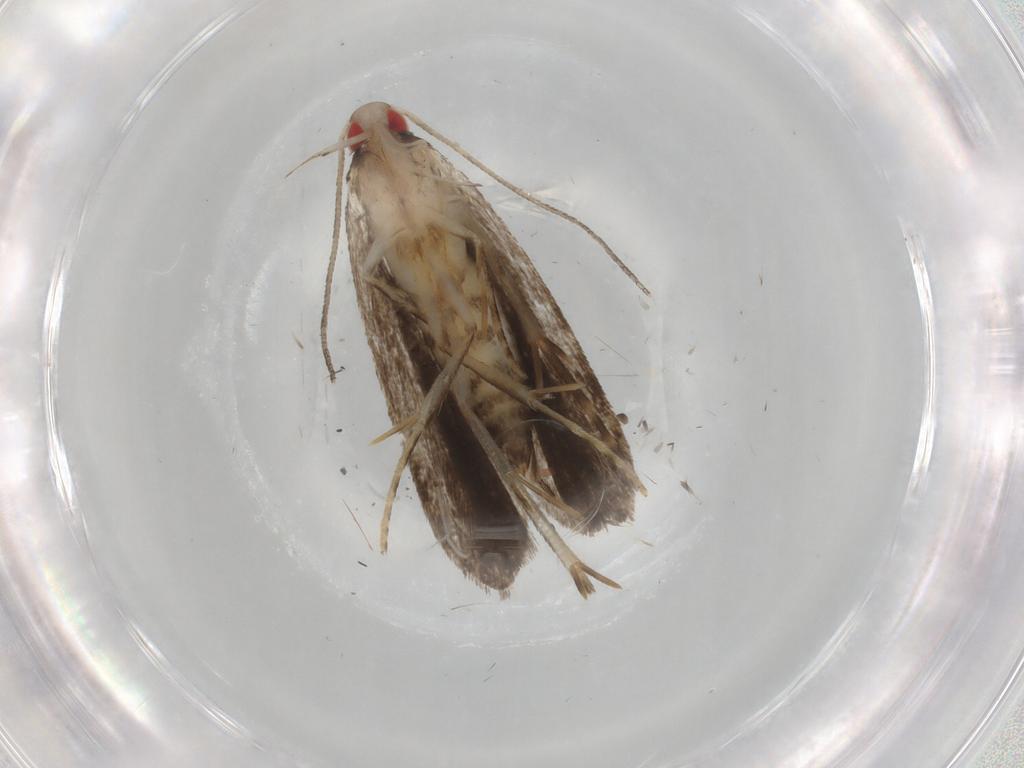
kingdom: Animalia
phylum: Arthropoda
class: Insecta
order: Lepidoptera
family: Gelechiidae
